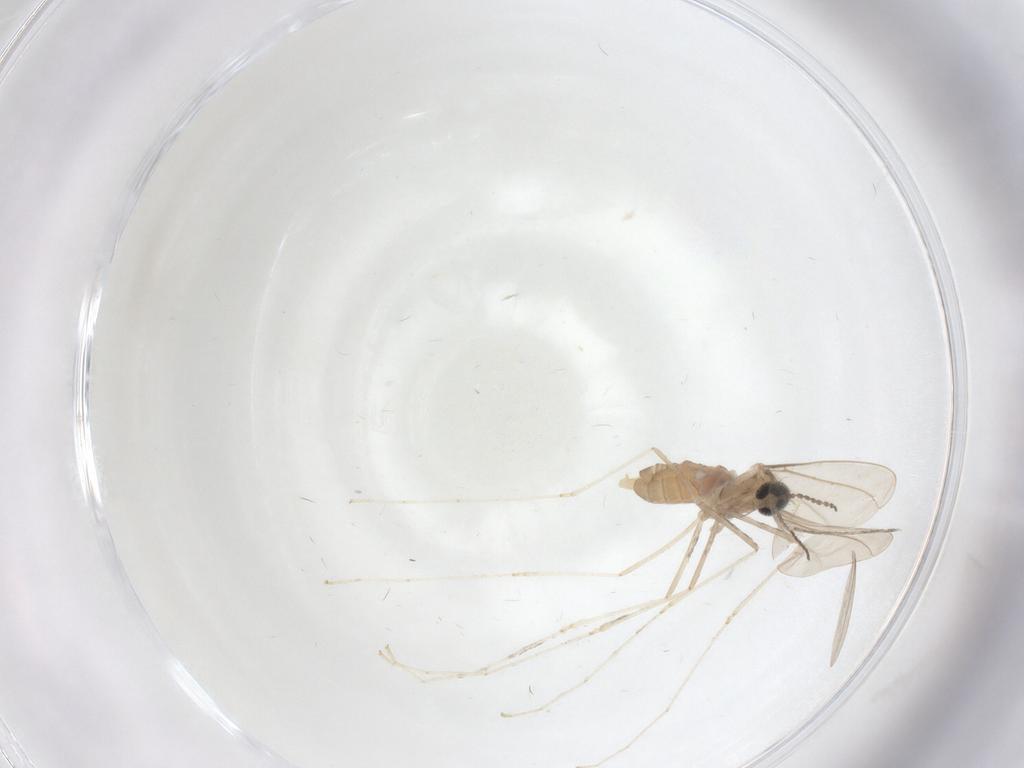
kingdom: Animalia
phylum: Arthropoda
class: Insecta
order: Diptera
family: Cecidomyiidae
